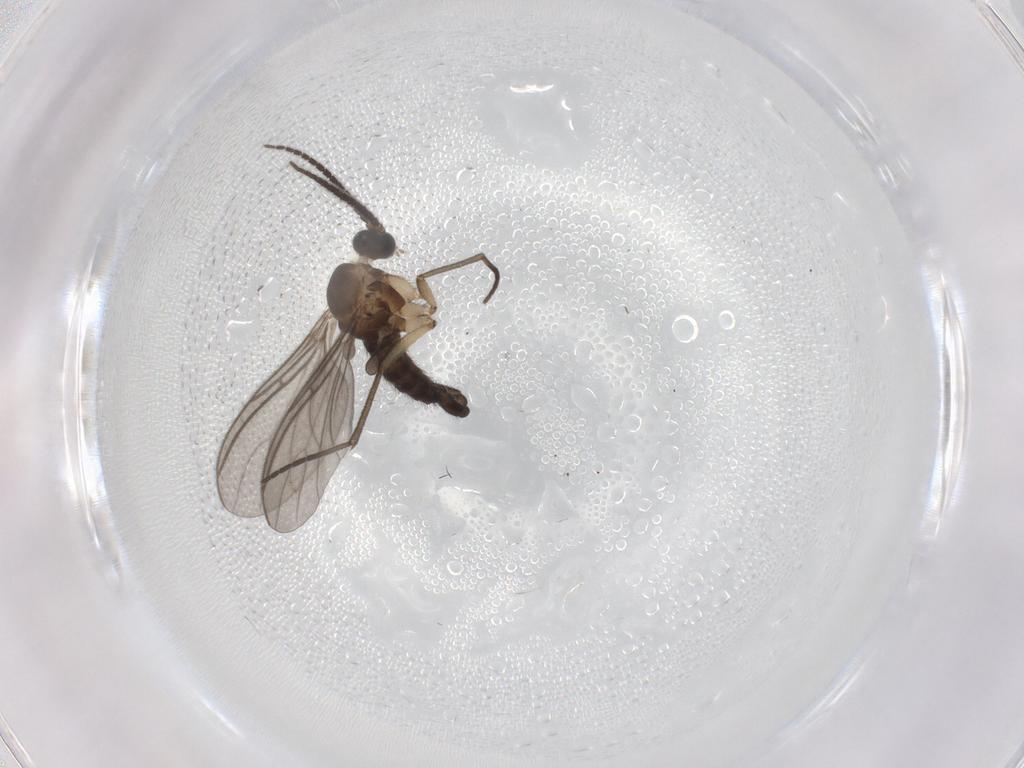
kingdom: Animalia
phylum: Arthropoda
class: Insecta
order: Diptera
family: Sciaridae
